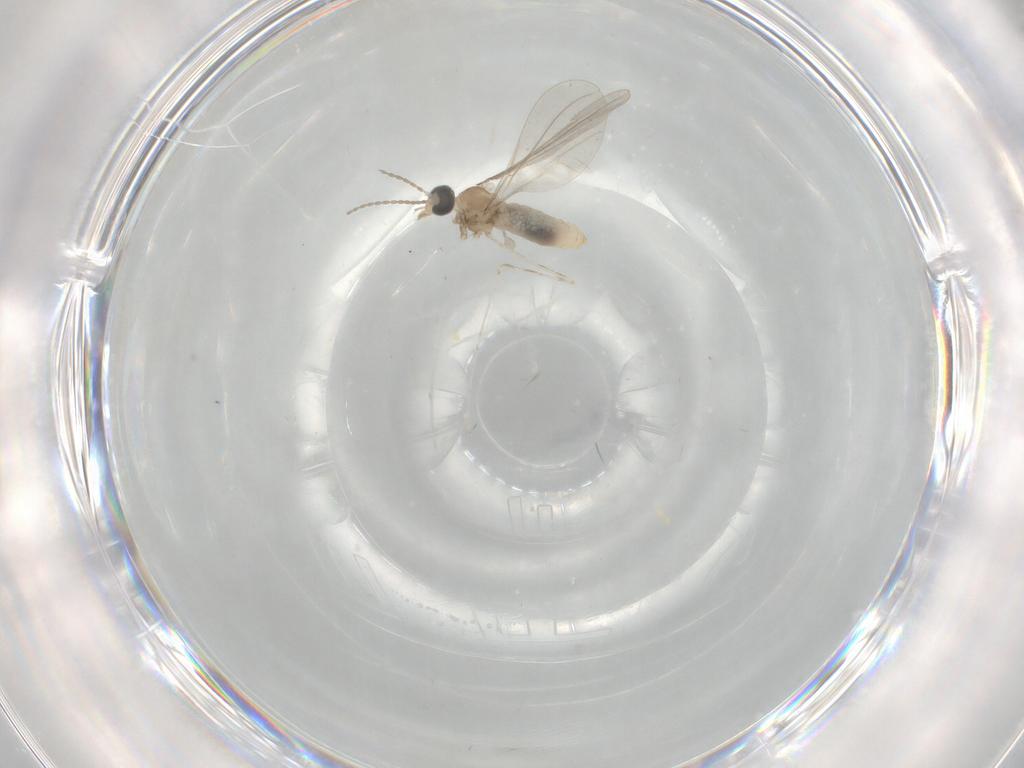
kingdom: Animalia
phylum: Arthropoda
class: Insecta
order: Diptera
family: Cecidomyiidae
